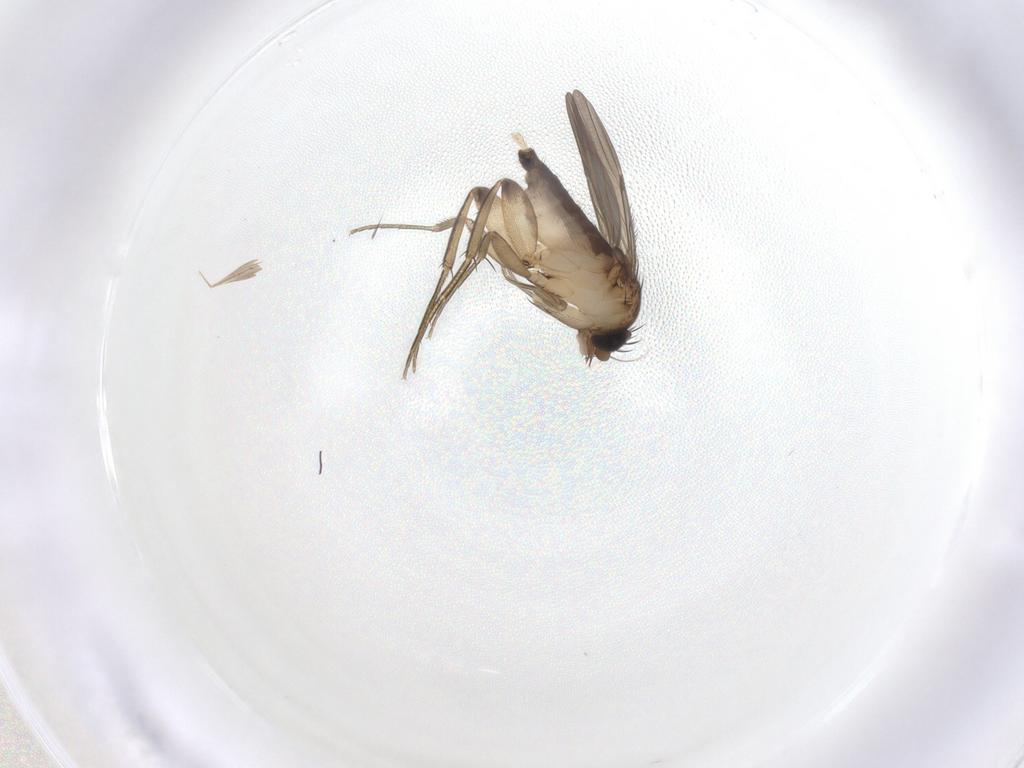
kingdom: Animalia
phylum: Arthropoda
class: Insecta
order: Diptera
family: Phoridae
